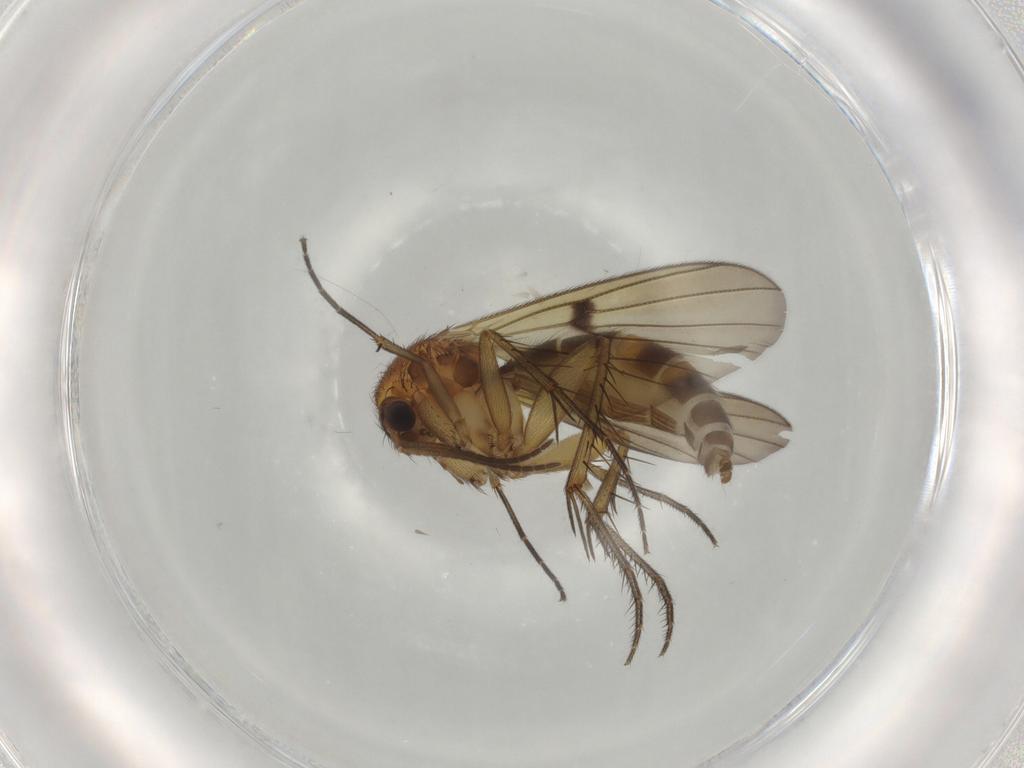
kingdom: Animalia
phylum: Arthropoda
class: Insecta
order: Diptera
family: Mycetophilidae
